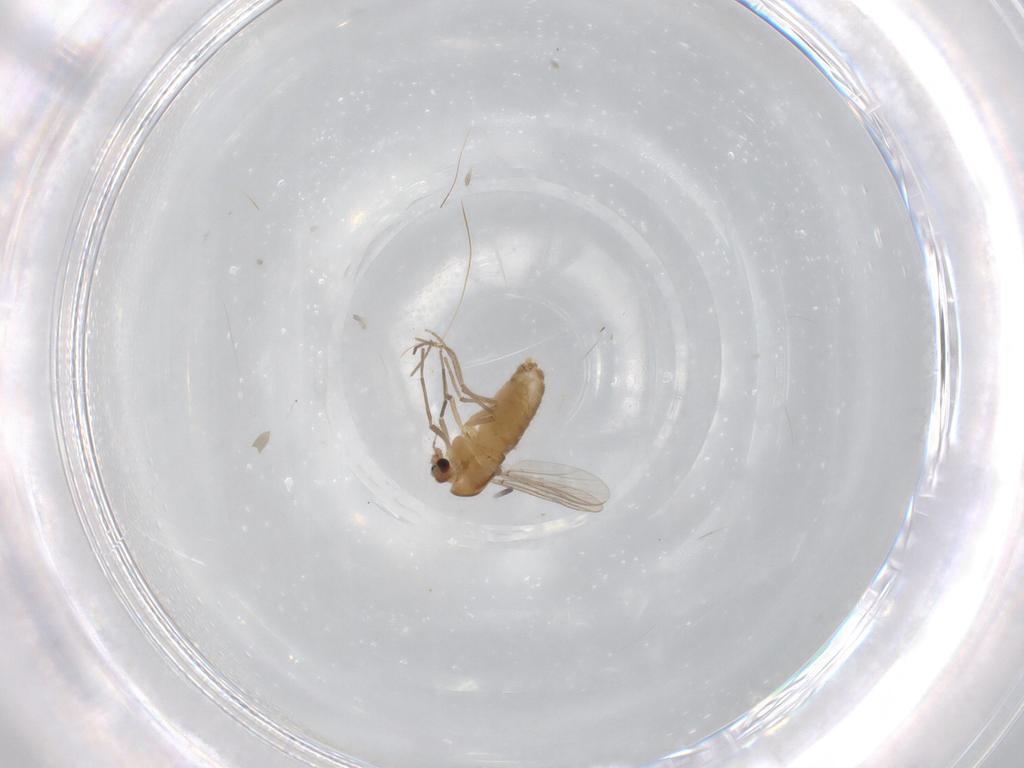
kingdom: Animalia
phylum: Arthropoda
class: Insecta
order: Diptera
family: Chironomidae
